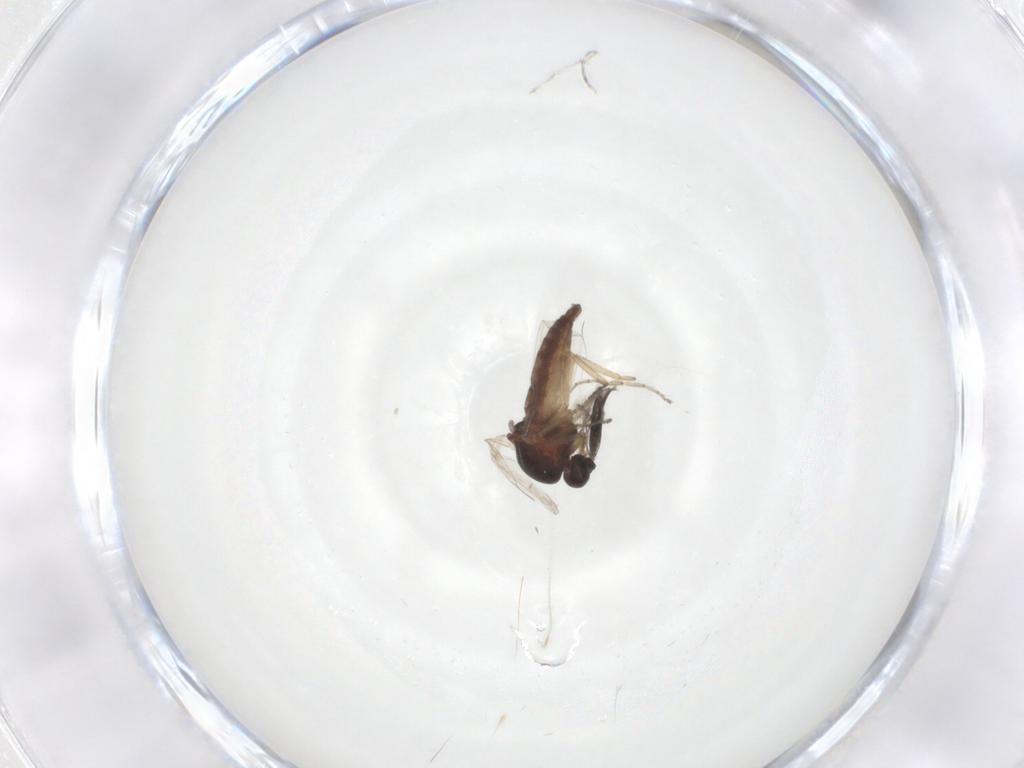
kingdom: Animalia
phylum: Arthropoda
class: Insecta
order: Diptera
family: Ceratopogonidae
